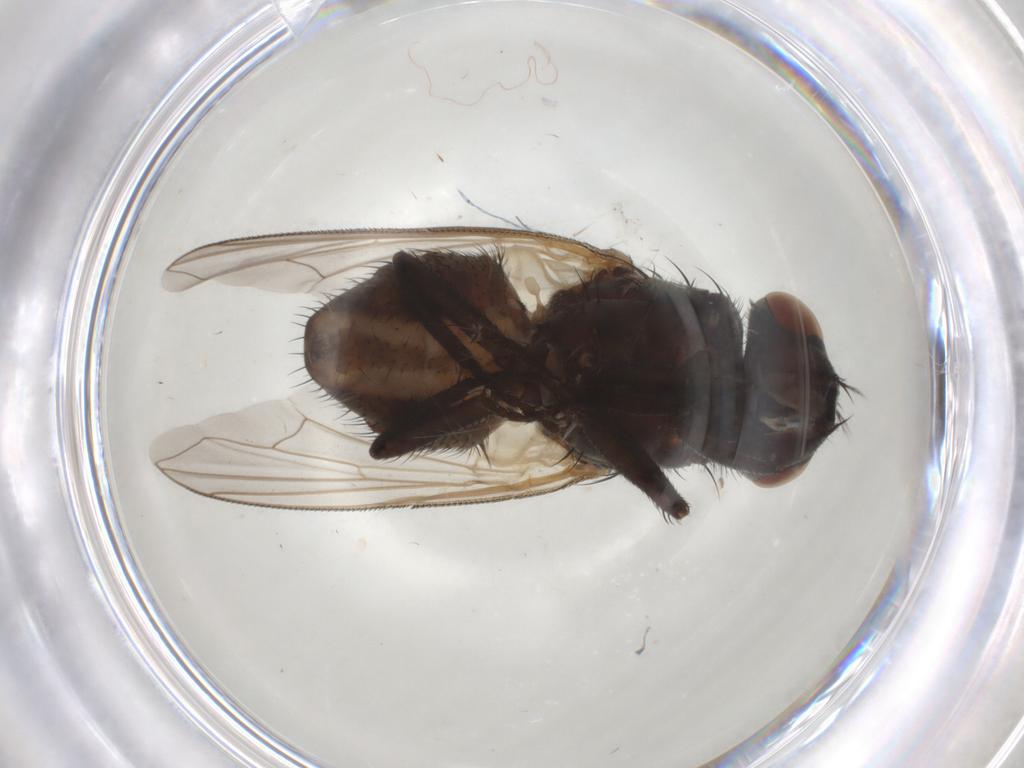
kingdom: Animalia
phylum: Arthropoda
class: Insecta
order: Diptera
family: Muscidae
